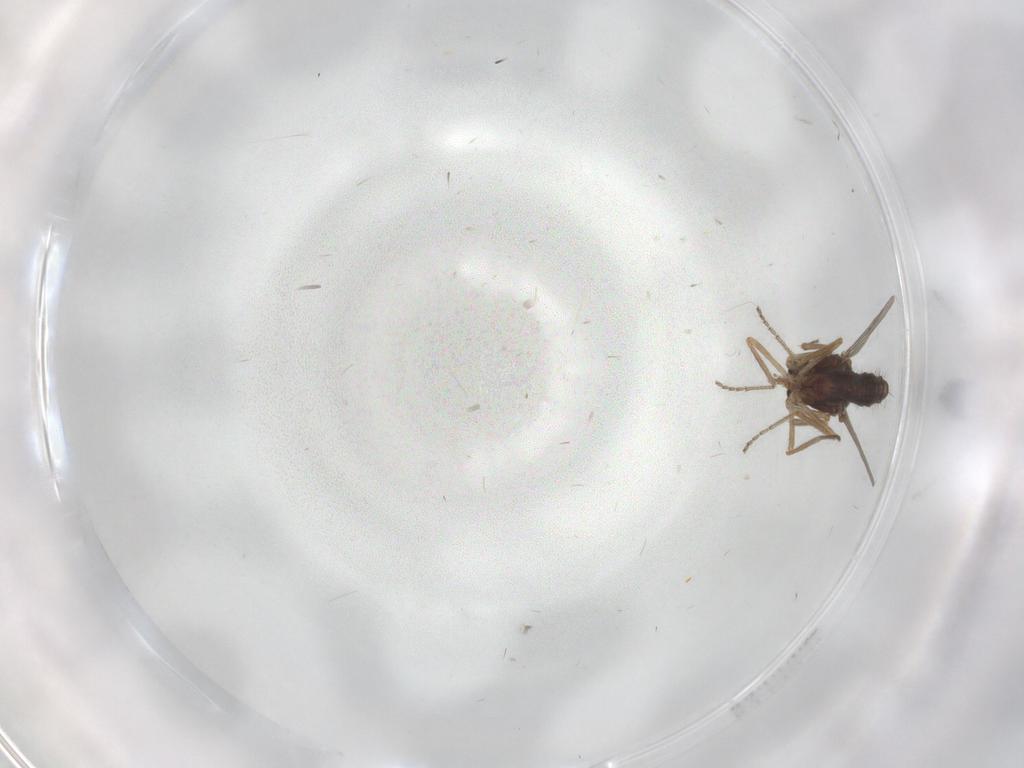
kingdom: Animalia
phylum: Arthropoda
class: Insecta
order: Diptera
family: Ceratopogonidae
